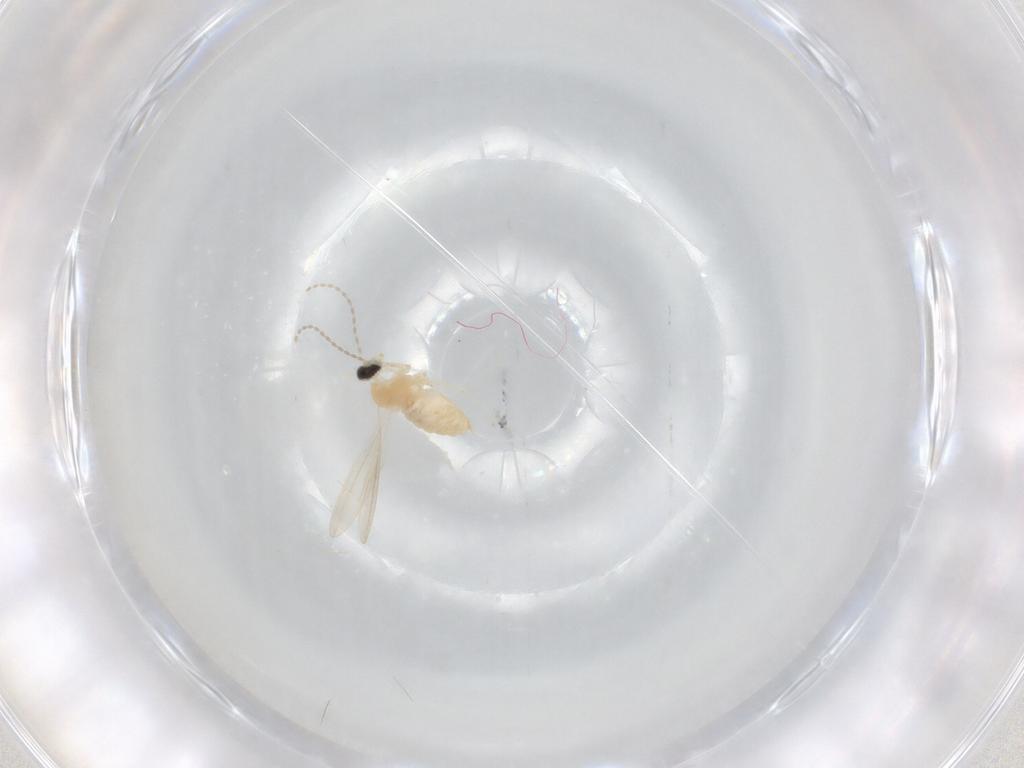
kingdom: Animalia
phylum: Arthropoda
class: Insecta
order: Diptera
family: Cecidomyiidae
